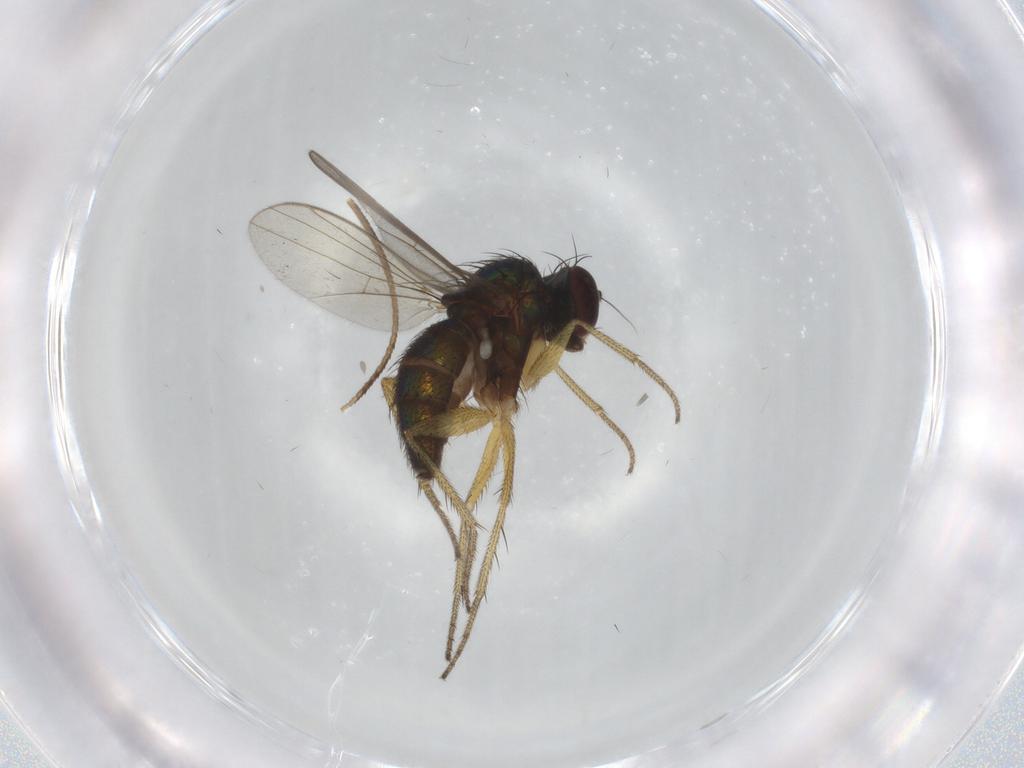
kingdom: Animalia
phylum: Arthropoda
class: Insecta
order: Diptera
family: Dolichopodidae
